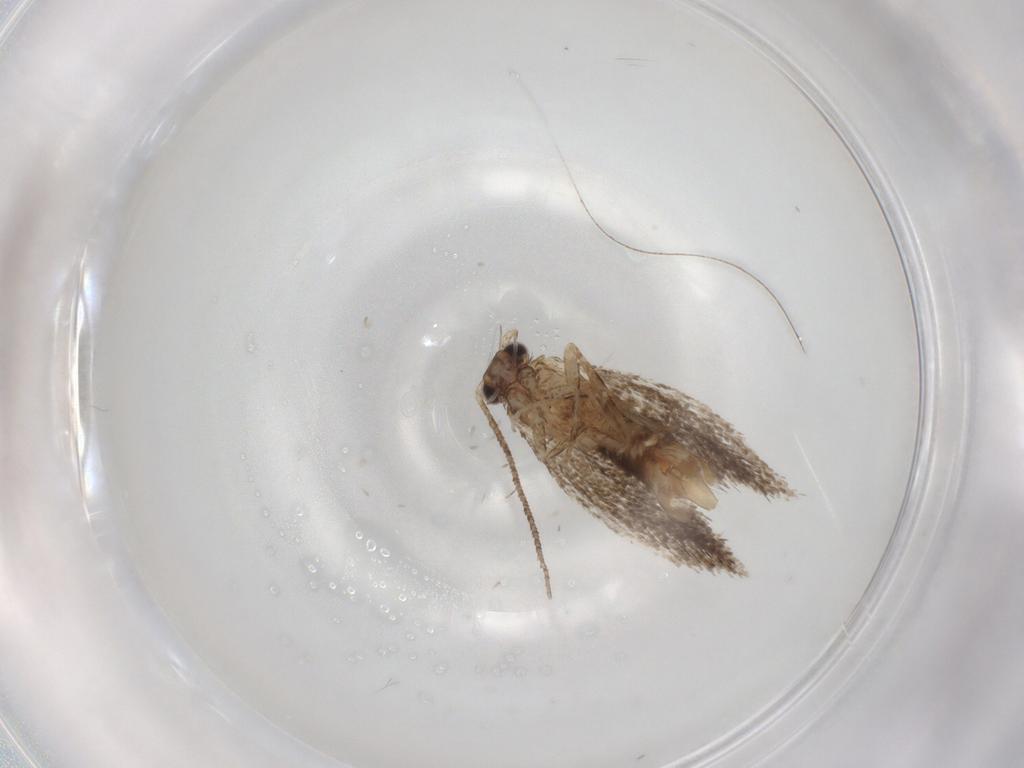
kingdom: Animalia
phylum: Arthropoda
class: Insecta
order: Lepidoptera
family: Tineidae
